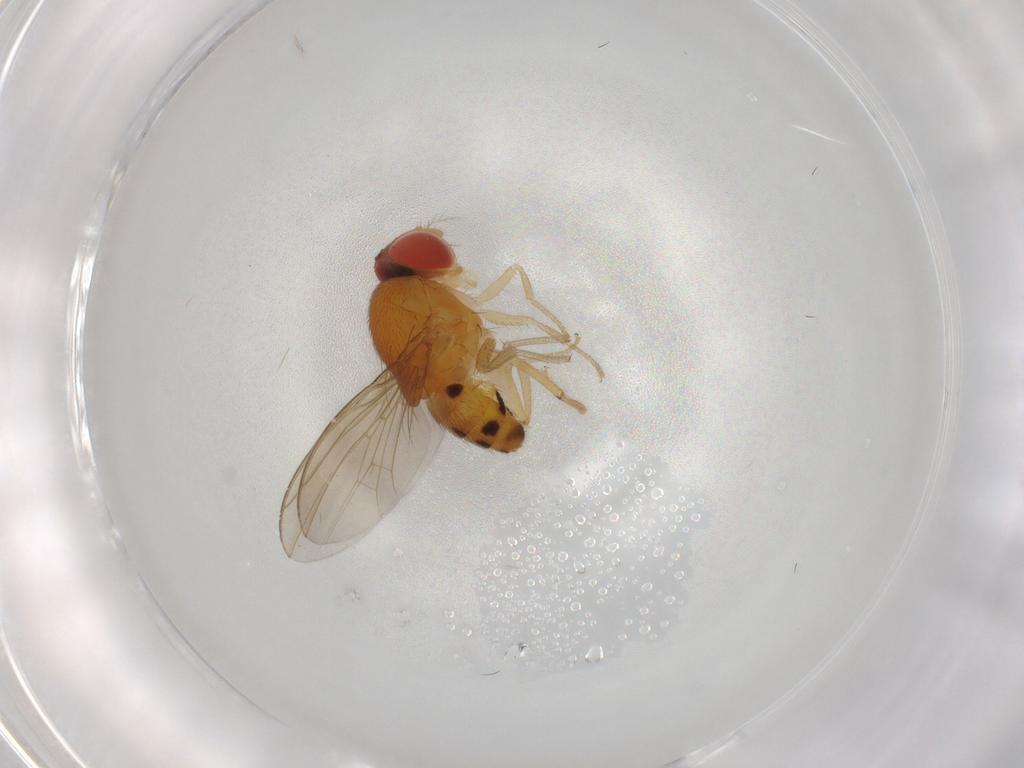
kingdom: Animalia
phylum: Arthropoda
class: Insecta
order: Diptera
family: Drosophilidae
